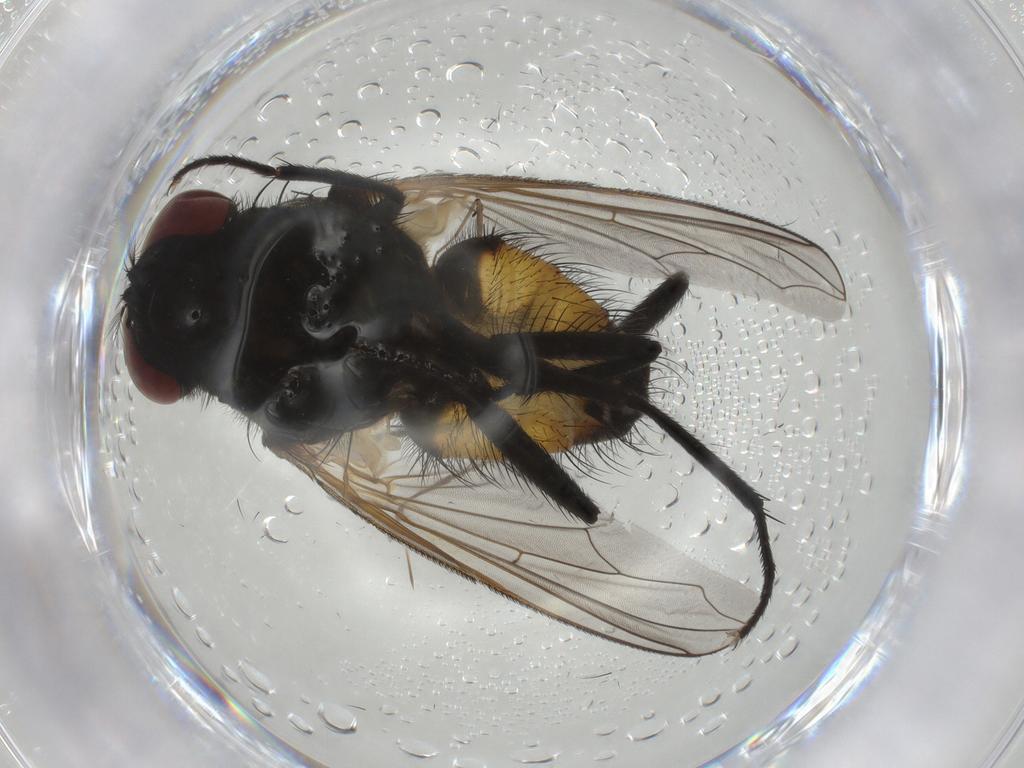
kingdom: Animalia
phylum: Arthropoda
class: Insecta
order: Diptera
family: Muscidae
